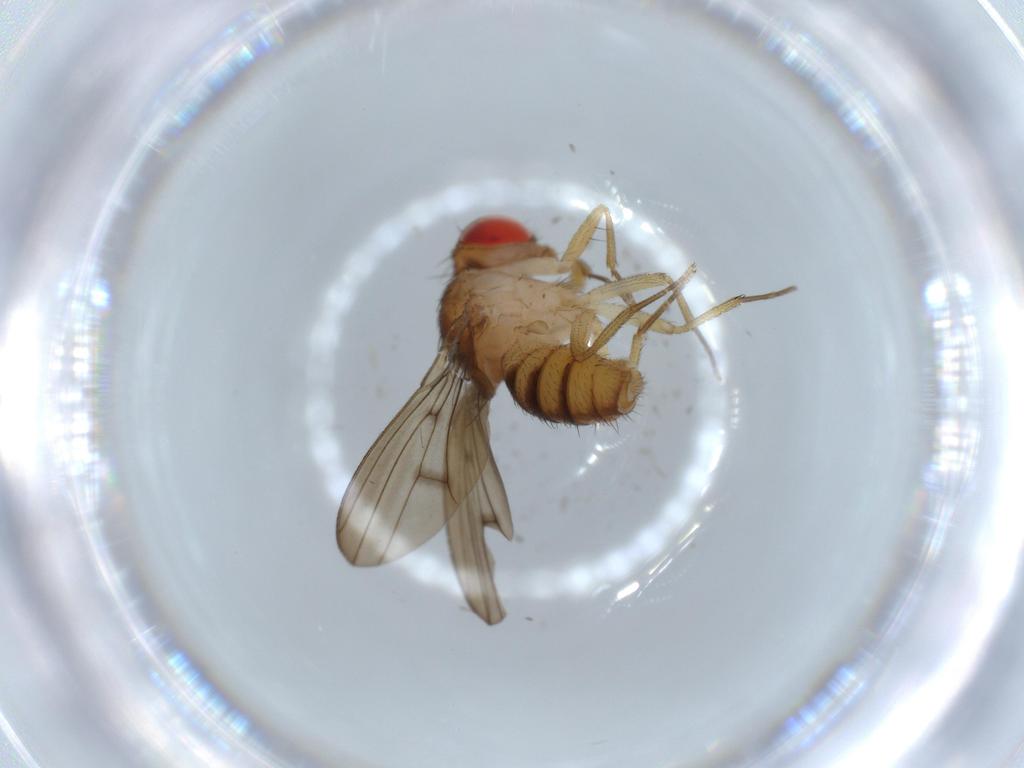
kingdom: Animalia
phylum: Arthropoda
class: Insecta
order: Diptera
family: Drosophilidae
